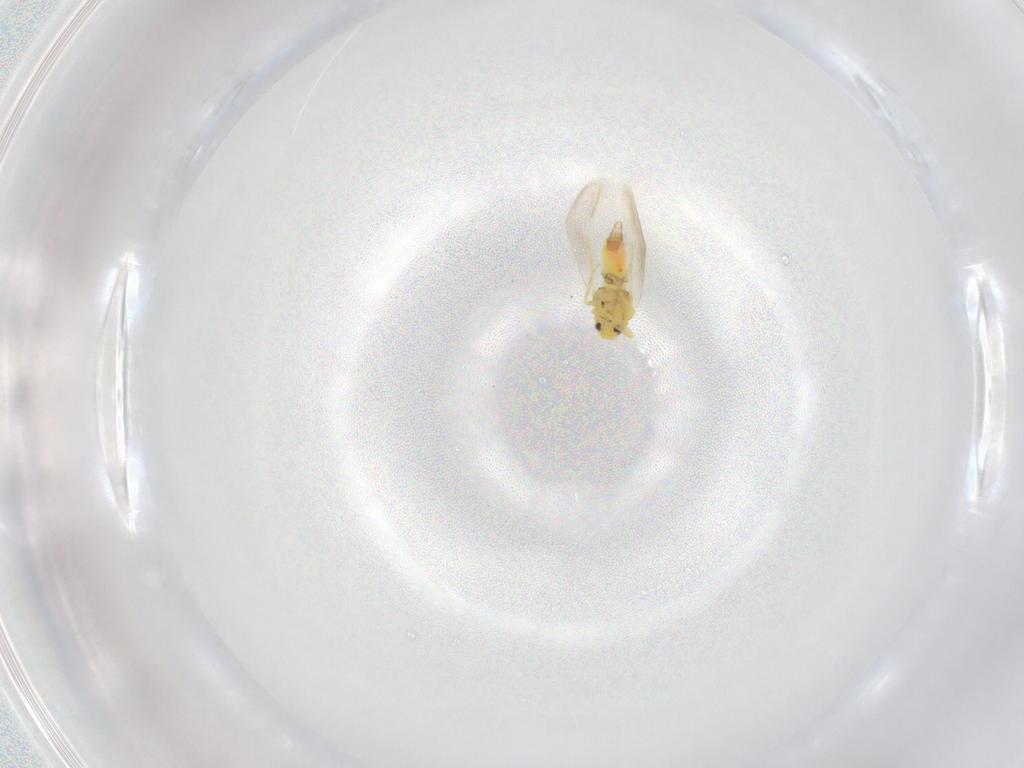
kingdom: Animalia
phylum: Arthropoda
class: Insecta
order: Hemiptera
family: Aleyrodidae
